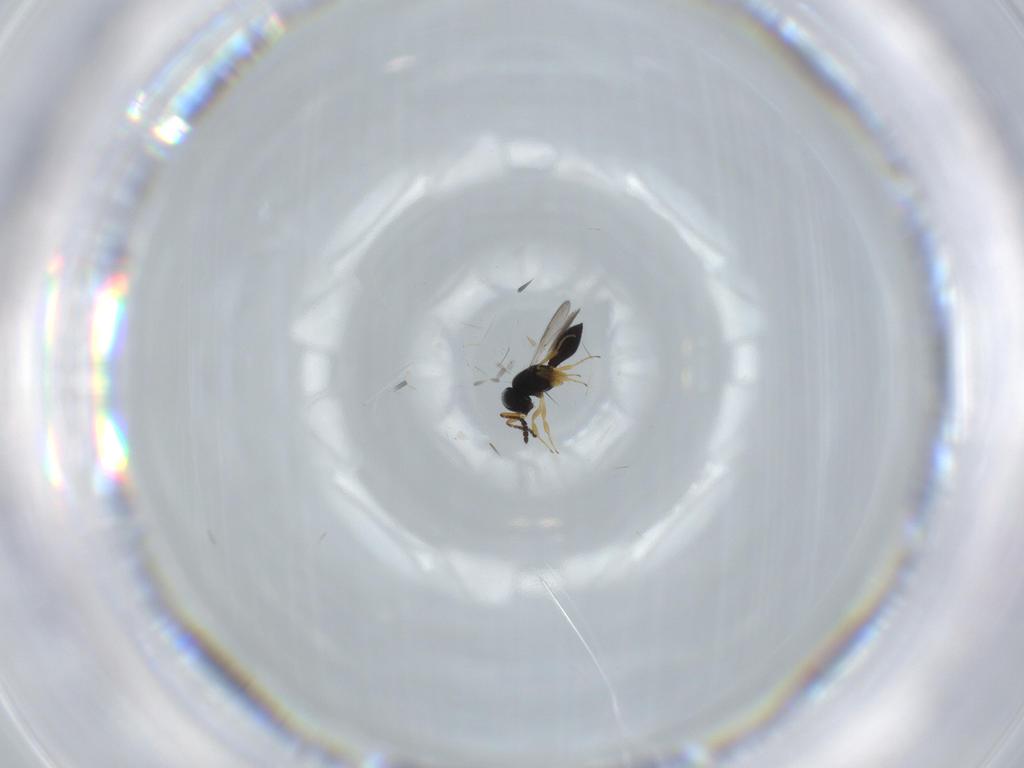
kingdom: Animalia
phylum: Arthropoda
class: Insecta
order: Hymenoptera
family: Scelionidae
